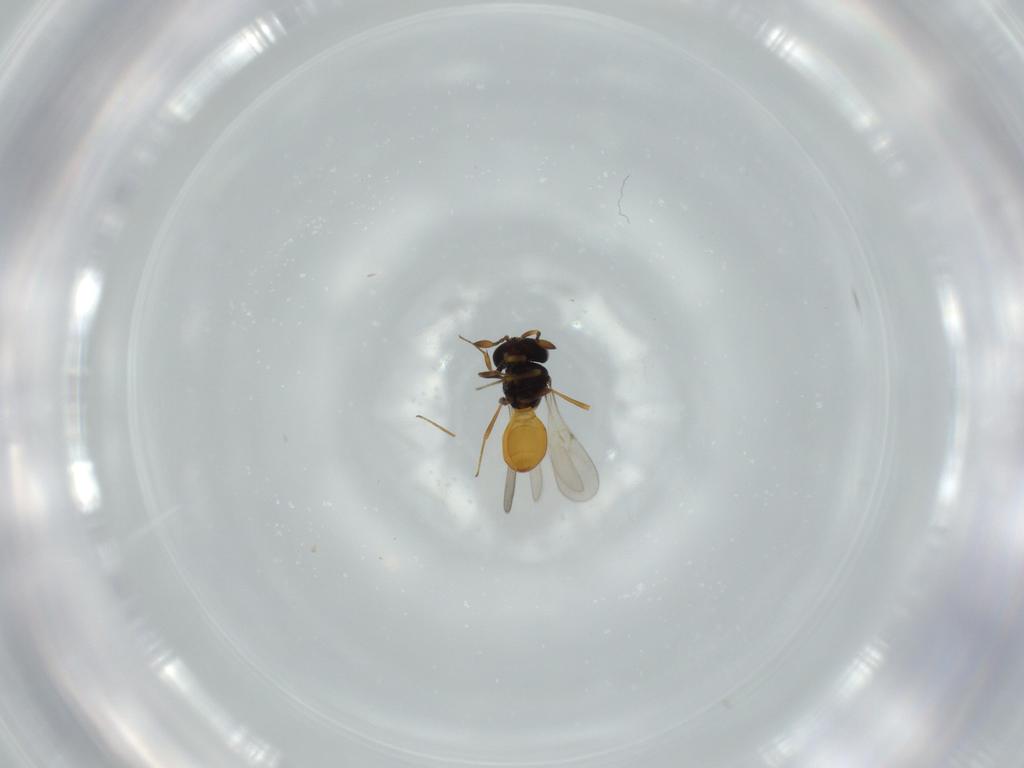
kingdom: Animalia
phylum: Arthropoda
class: Insecta
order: Hymenoptera
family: Scelionidae
